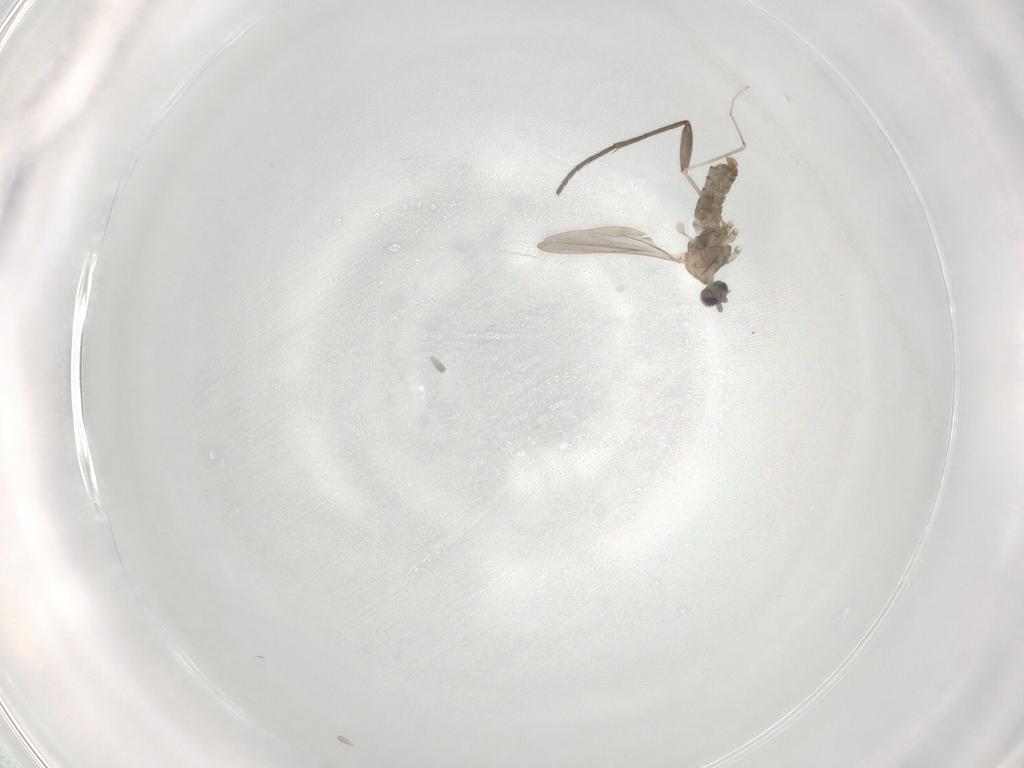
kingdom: Animalia
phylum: Arthropoda
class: Insecta
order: Diptera
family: Cecidomyiidae
